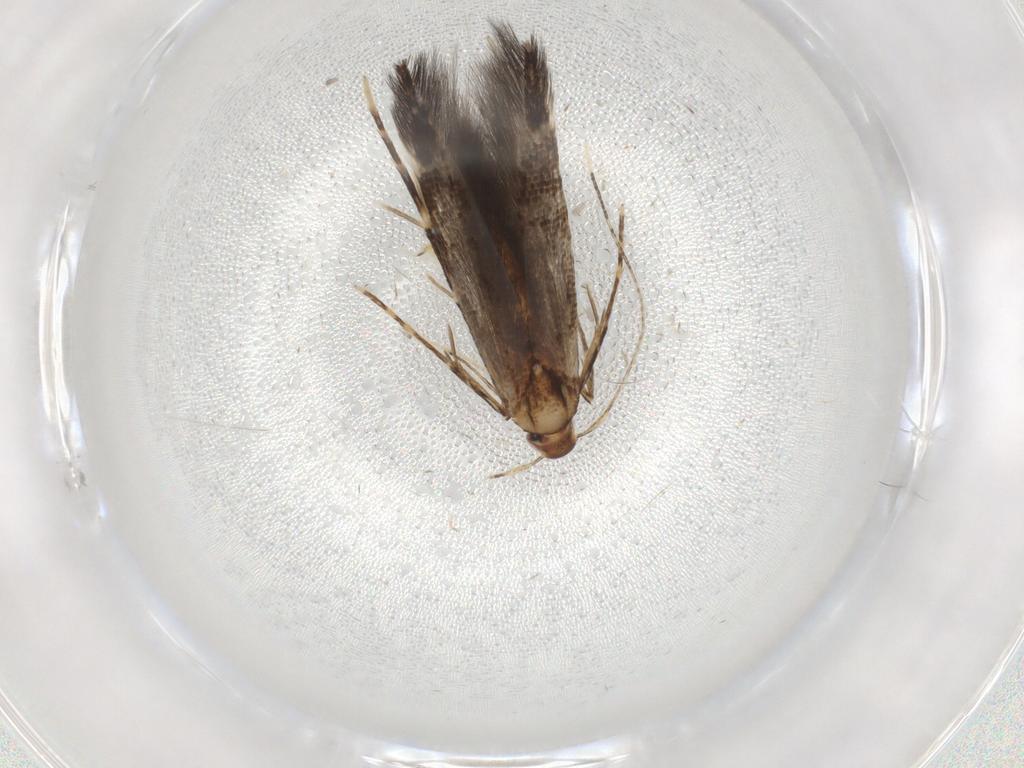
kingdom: Animalia
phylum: Arthropoda
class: Insecta
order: Lepidoptera
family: Cosmopterigidae
